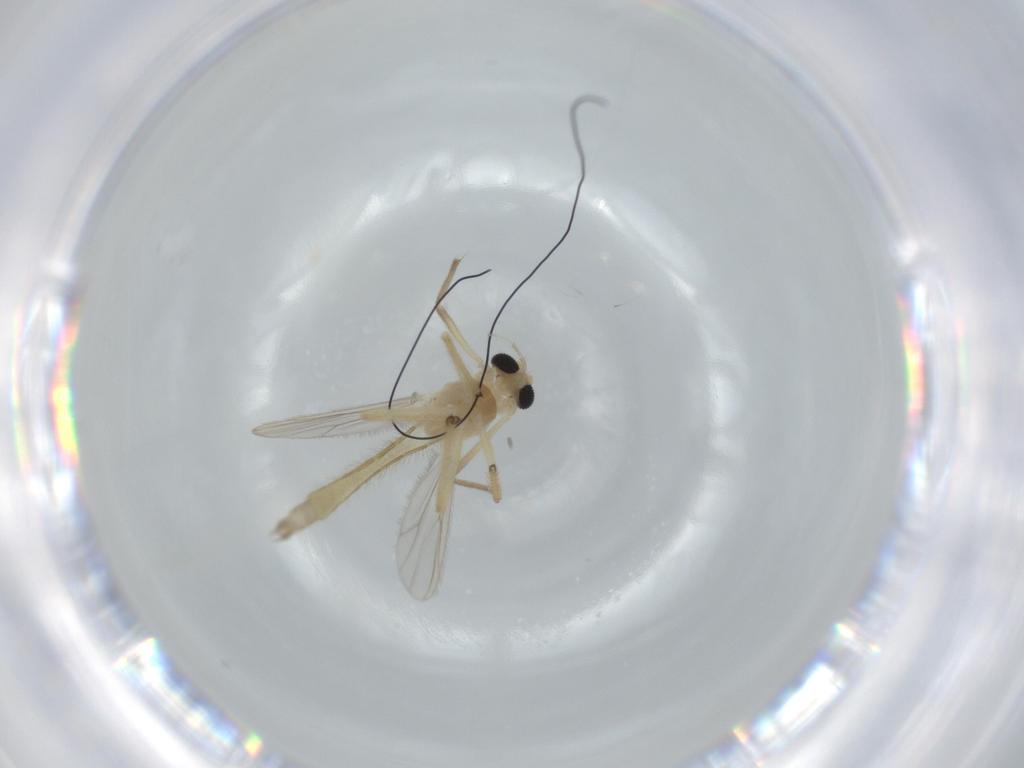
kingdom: Animalia
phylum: Arthropoda
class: Insecta
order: Diptera
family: Chironomidae
